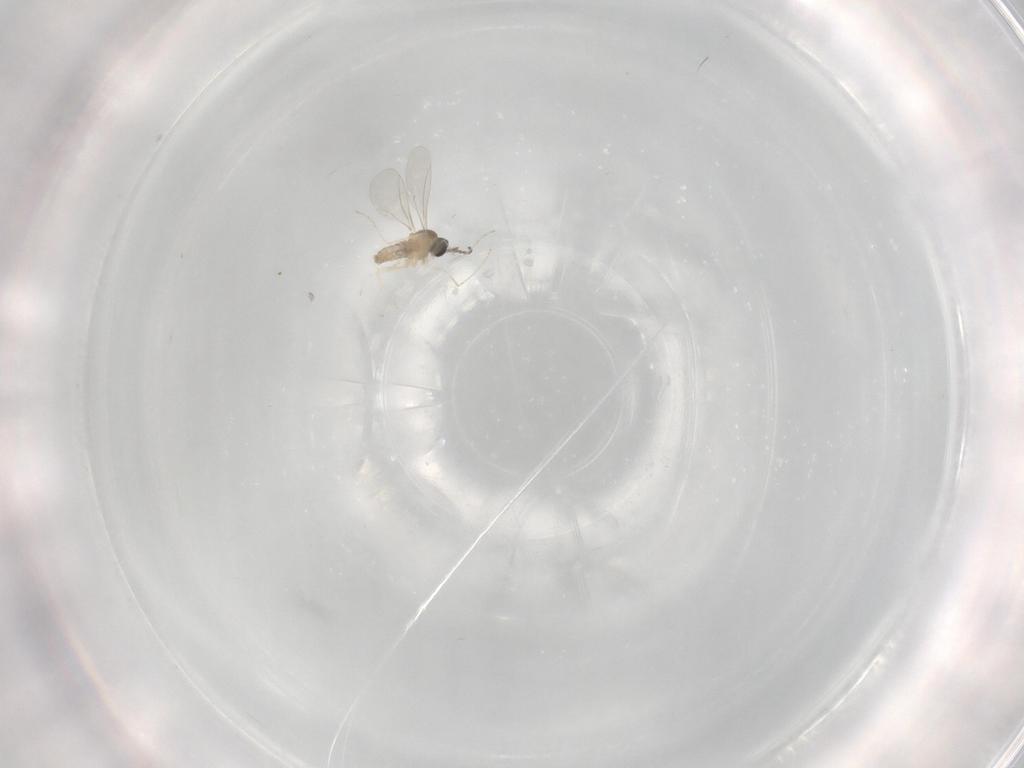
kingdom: Animalia
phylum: Arthropoda
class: Insecta
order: Diptera
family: Cecidomyiidae
